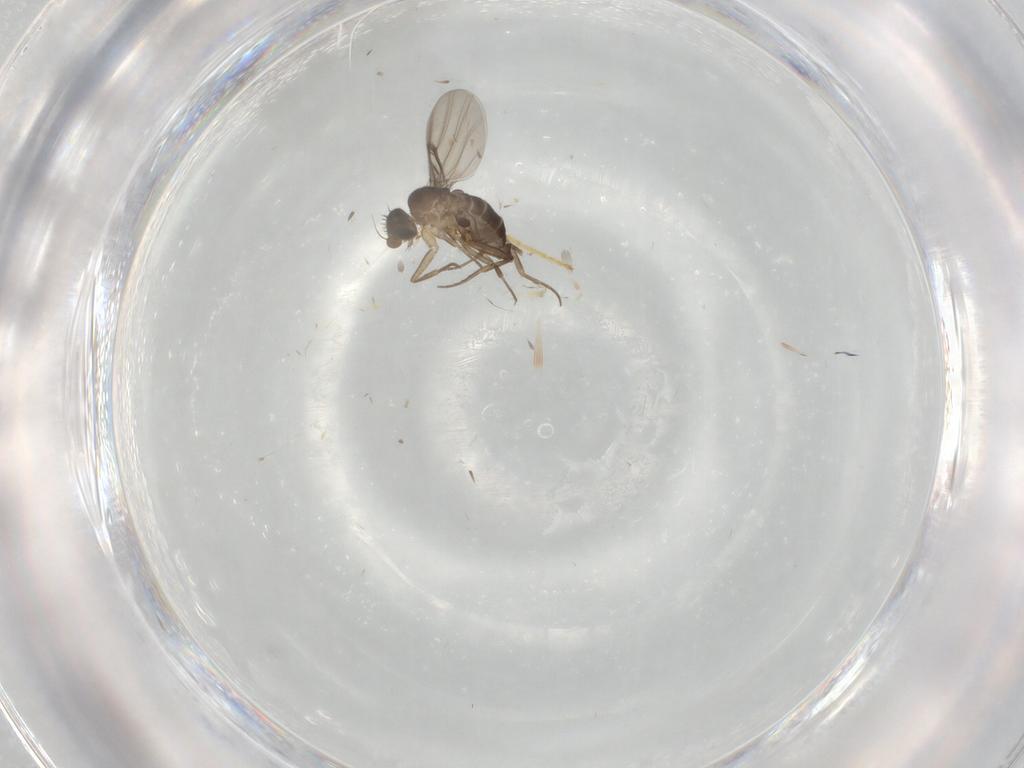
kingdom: Animalia
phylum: Arthropoda
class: Insecta
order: Diptera
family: Phoridae
